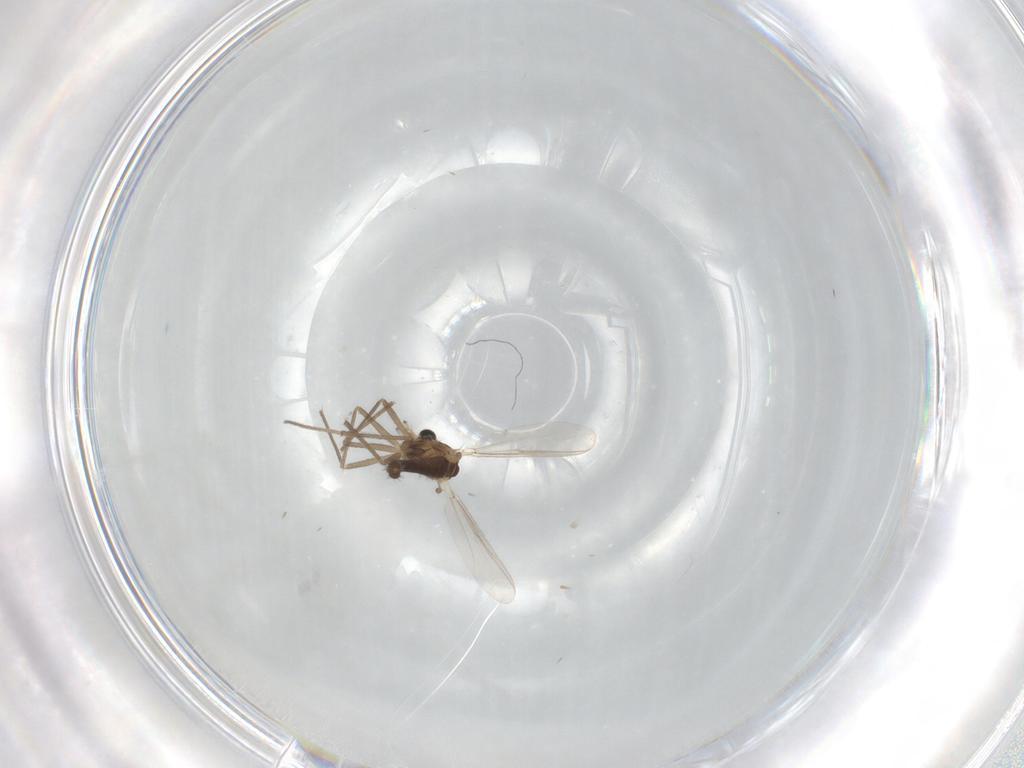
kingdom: Animalia
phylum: Arthropoda
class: Insecta
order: Diptera
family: Chironomidae
